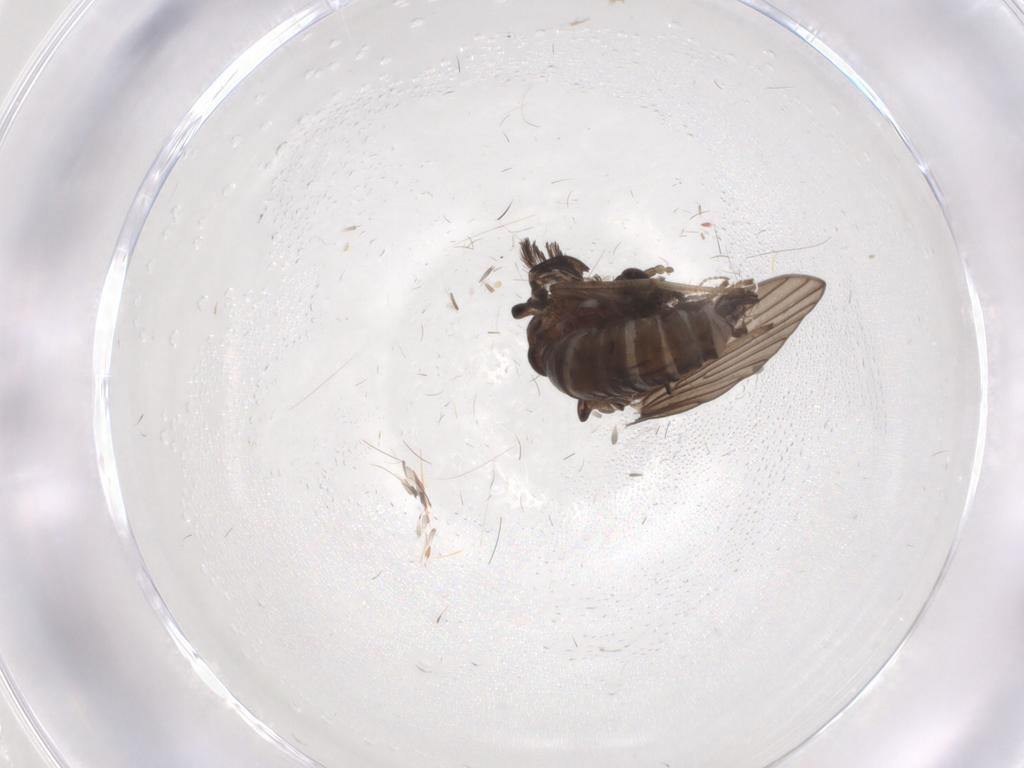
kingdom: Animalia
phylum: Arthropoda
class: Insecta
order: Diptera
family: Psychodidae
